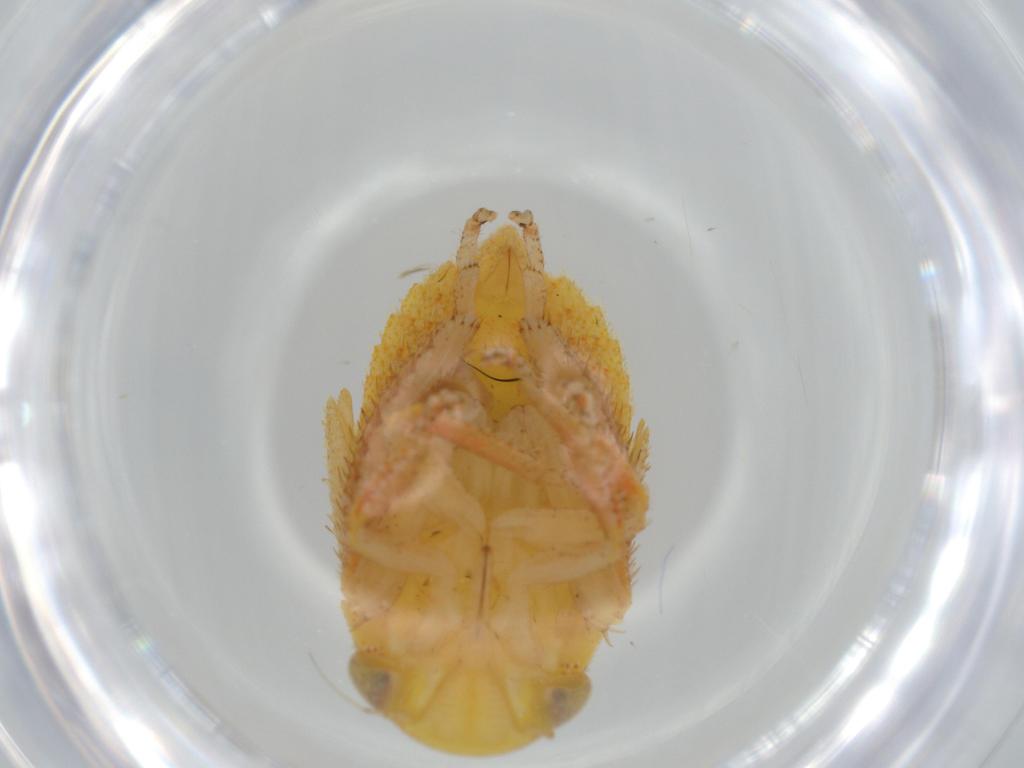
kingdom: Animalia
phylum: Arthropoda
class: Insecta
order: Hemiptera
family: Cicadellidae
